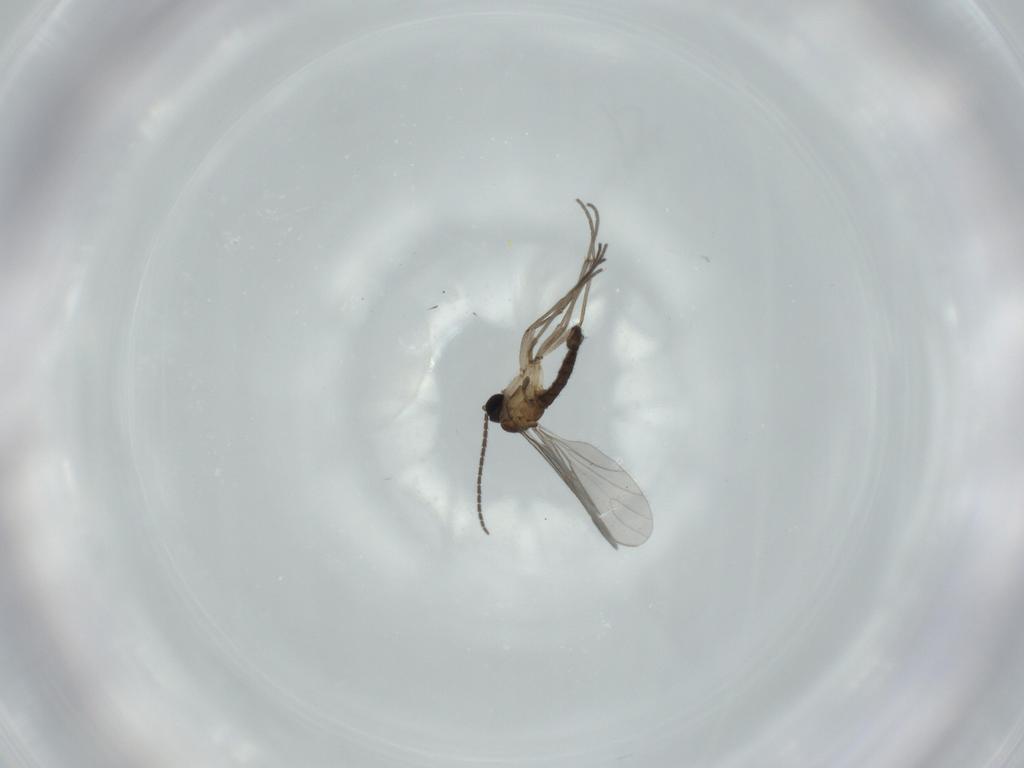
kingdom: Animalia
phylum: Arthropoda
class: Insecta
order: Diptera
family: Sciaridae
